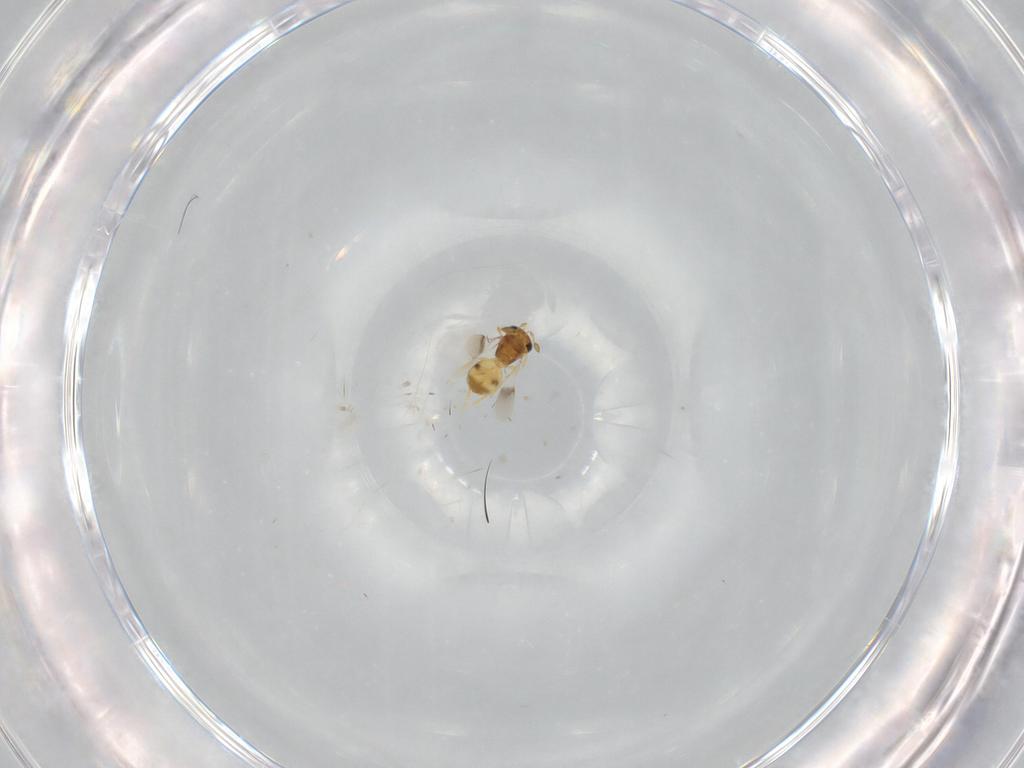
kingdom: Animalia
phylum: Arthropoda
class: Insecta
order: Hymenoptera
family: Scelionidae
